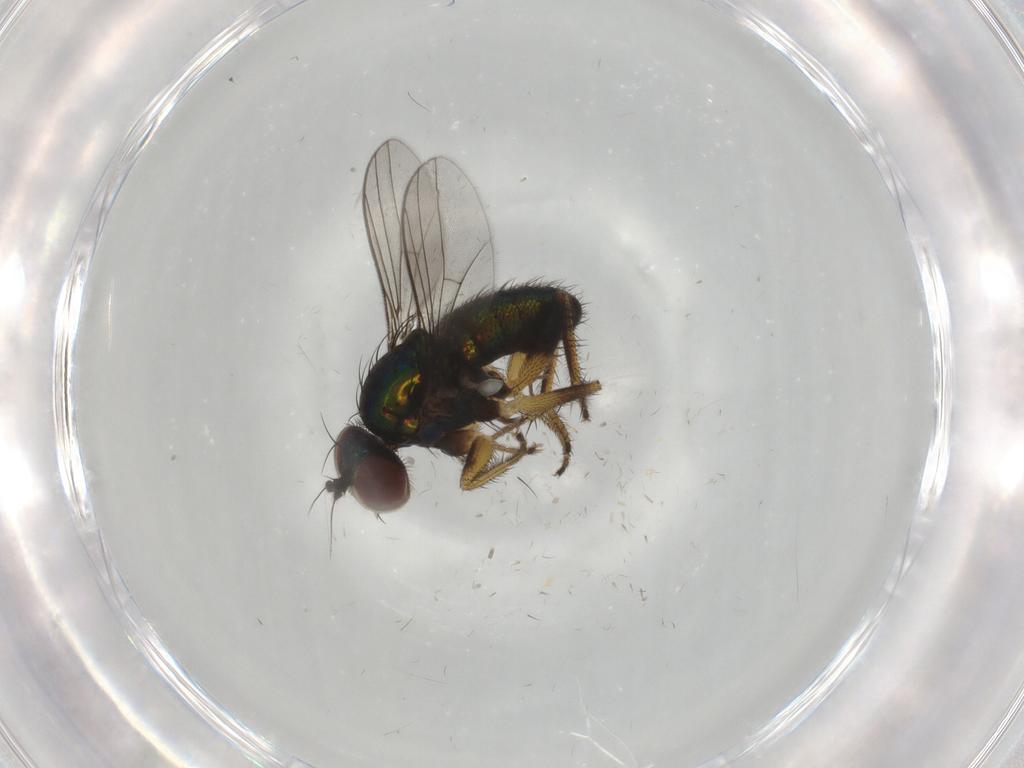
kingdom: Animalia
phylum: Arthropoda
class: Insecta
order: Diptera
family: Dolichopodidae
